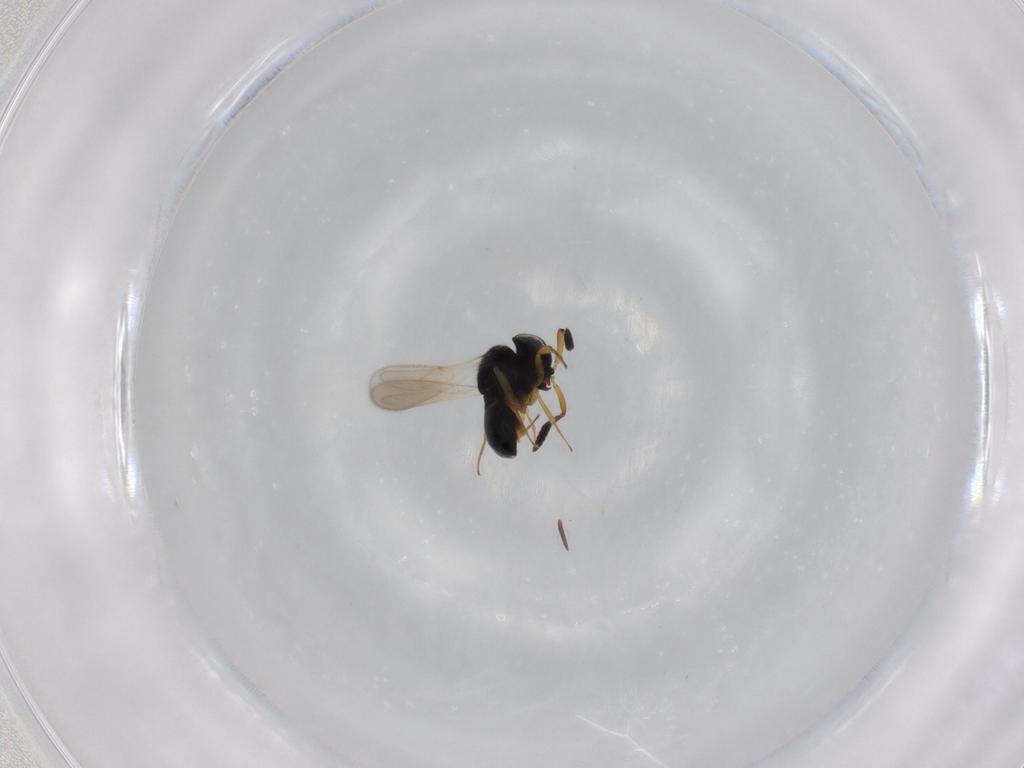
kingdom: Animalia
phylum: Arthropoda
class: Insecta
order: Hymenoptera
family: Scelionidae
